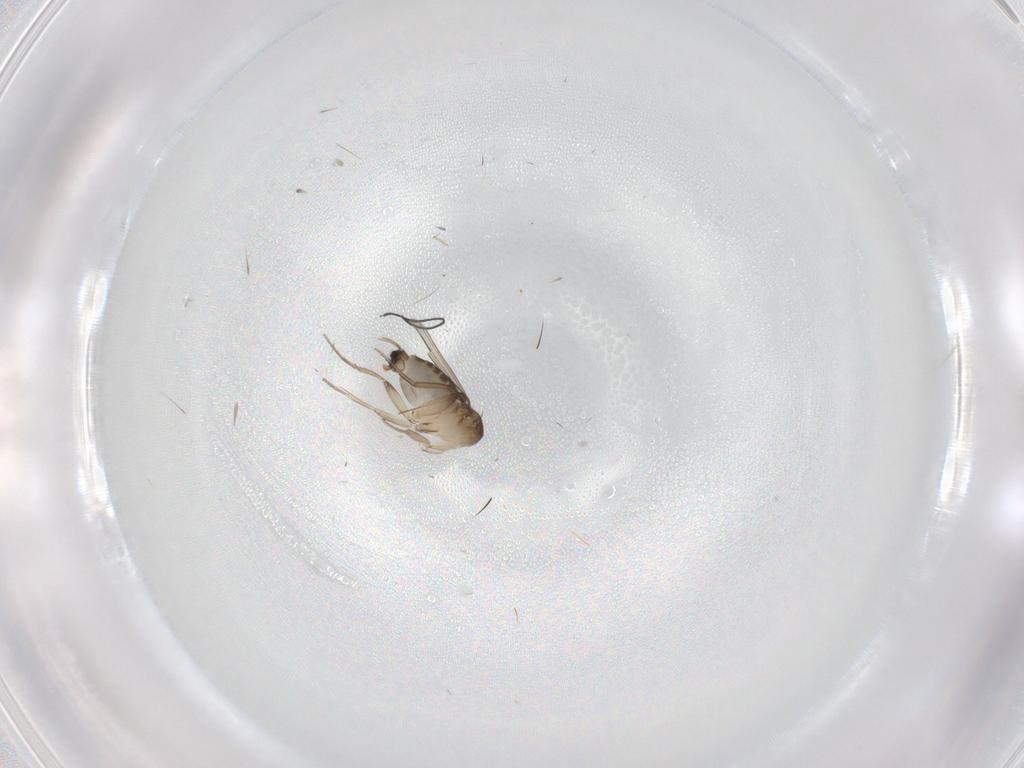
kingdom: Animalia
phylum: Arthropoda
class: Insecta
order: Diptera
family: Phoridae
